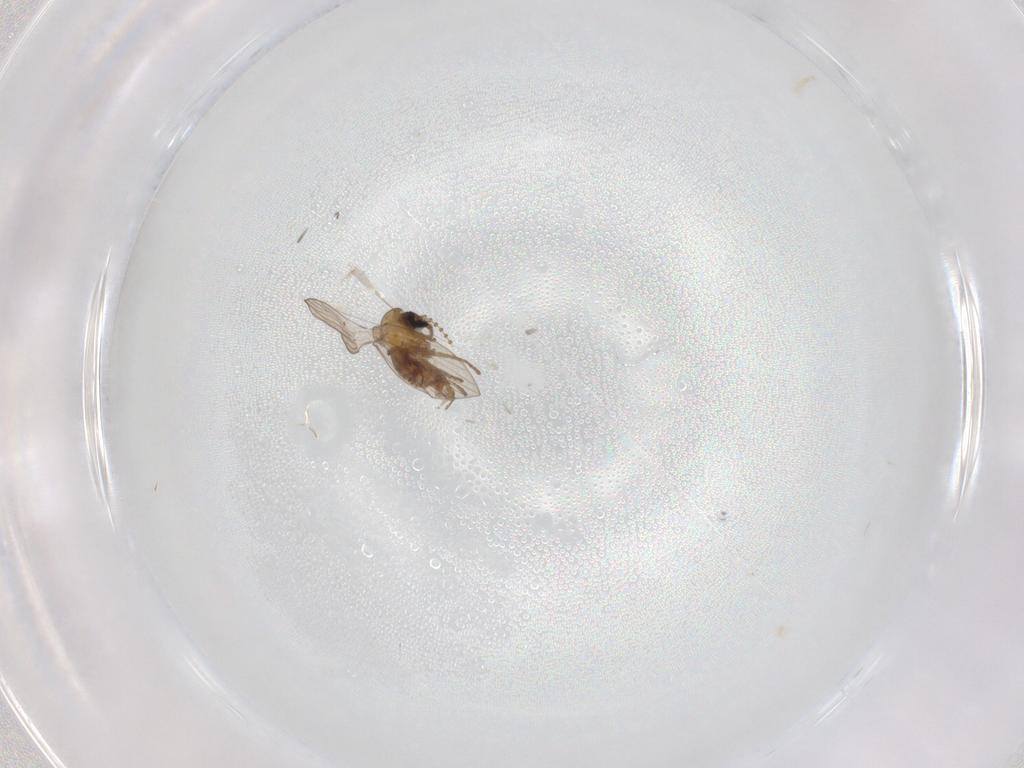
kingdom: Animalia
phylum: Arthropoda
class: Insecta
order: Diptera
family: Psychodidae
